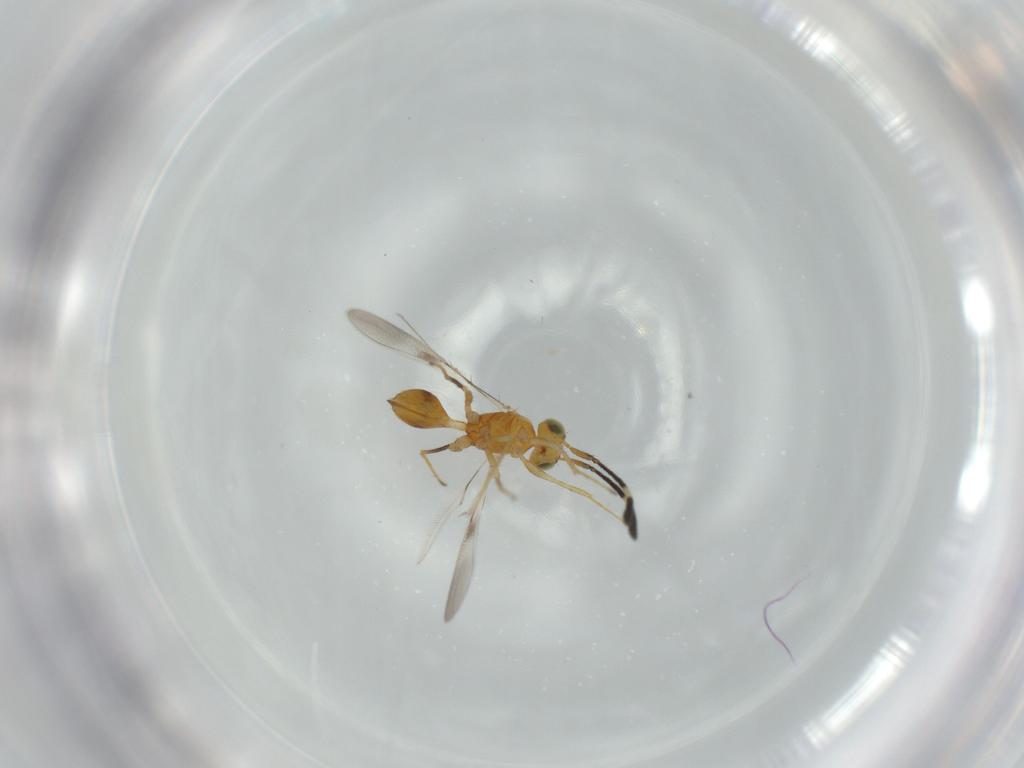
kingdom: Animalia
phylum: Arthropoda
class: Insecta
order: Hymenoptera
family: Mymaridae
